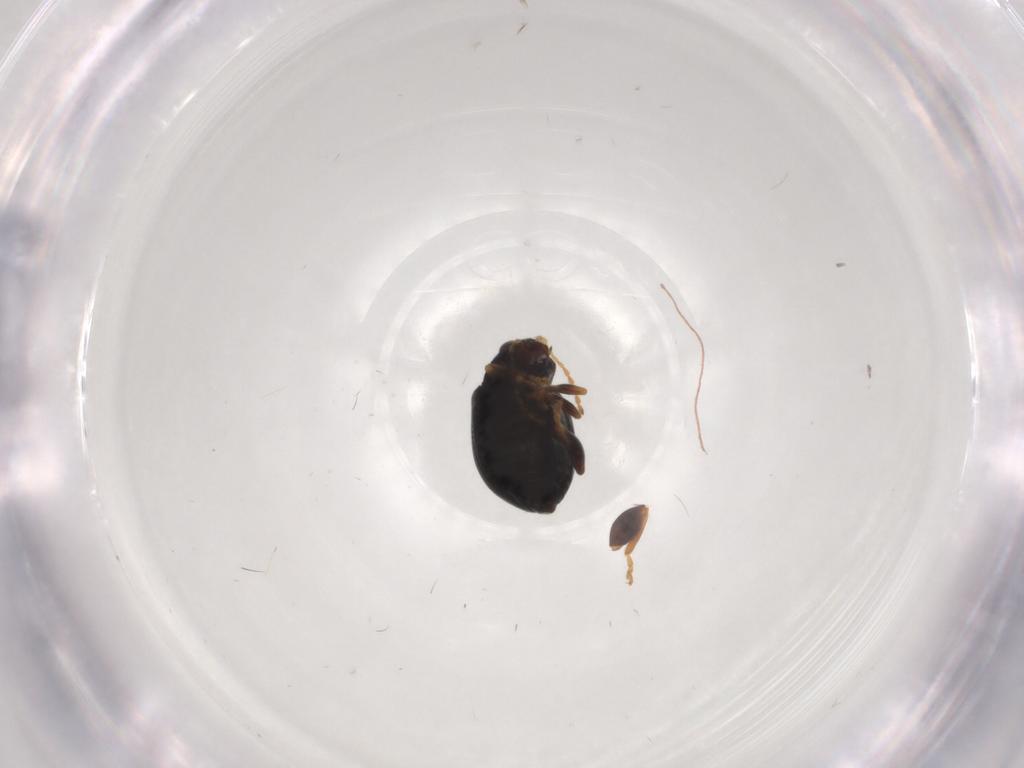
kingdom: Animalia
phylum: Arthropoda
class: Insecta
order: Coleoptera
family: Chrysomelidae
